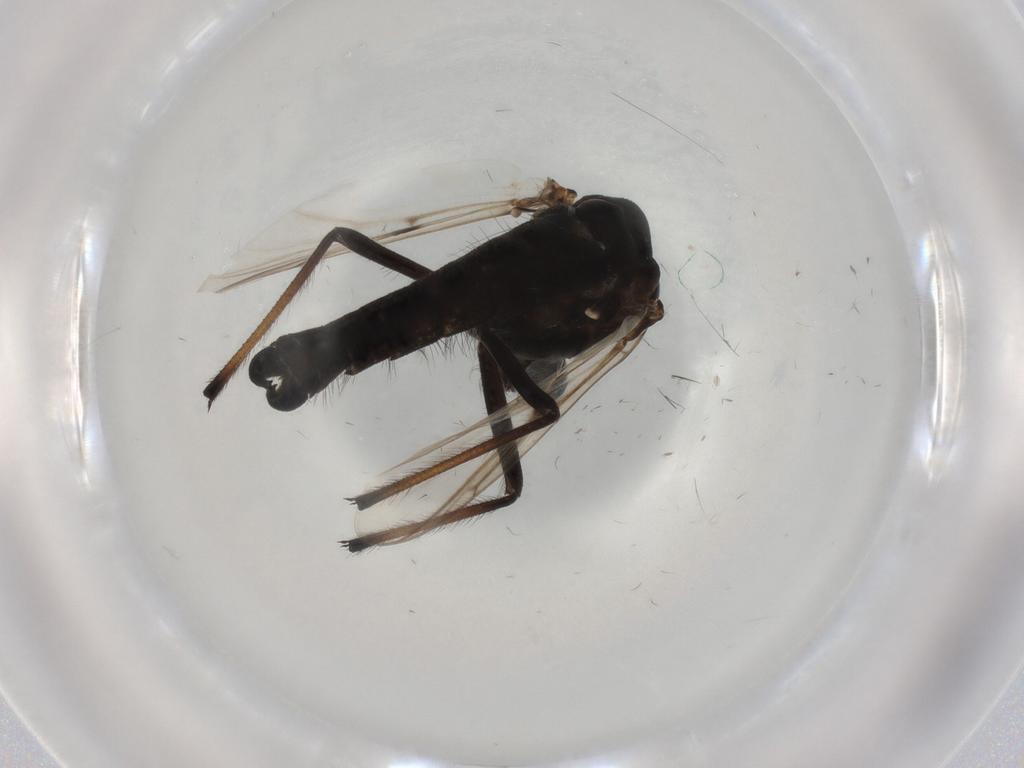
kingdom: Animalia
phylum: Arthropoda
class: Insecta
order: Diptera
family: Chironomidae
